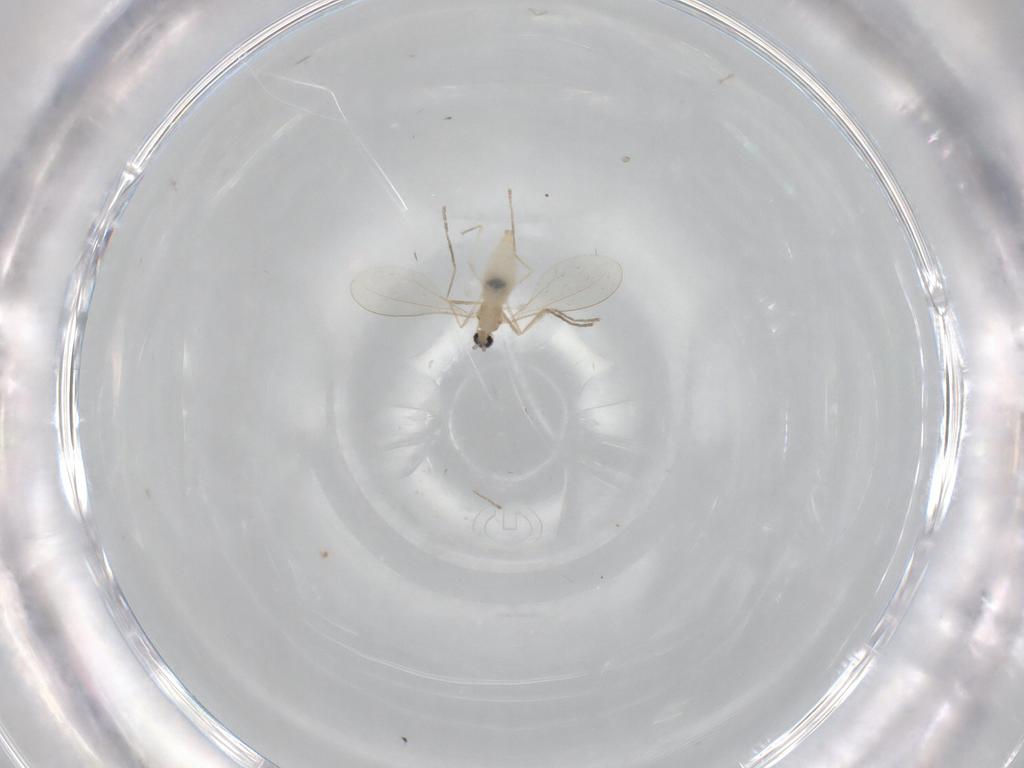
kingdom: Animalia
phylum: Arthropoda
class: Insecta
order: Diptera
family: Cecidomyiidae
